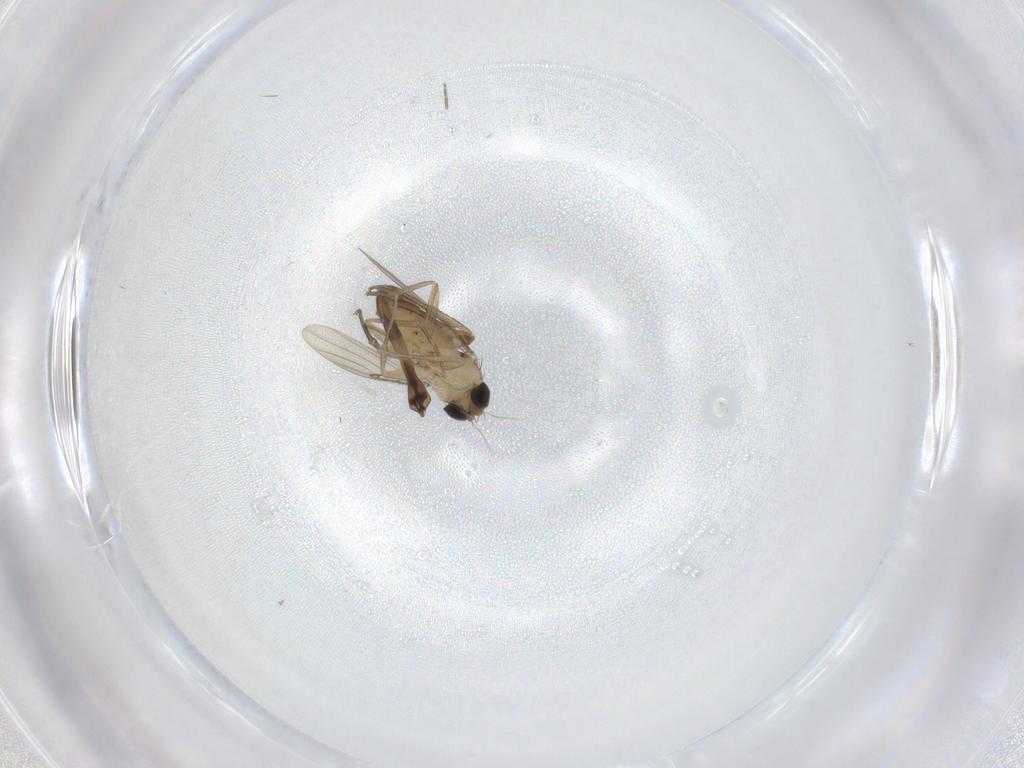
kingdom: Animalia
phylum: Arthropoda
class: Insecta
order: Diptera
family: Phoridae
